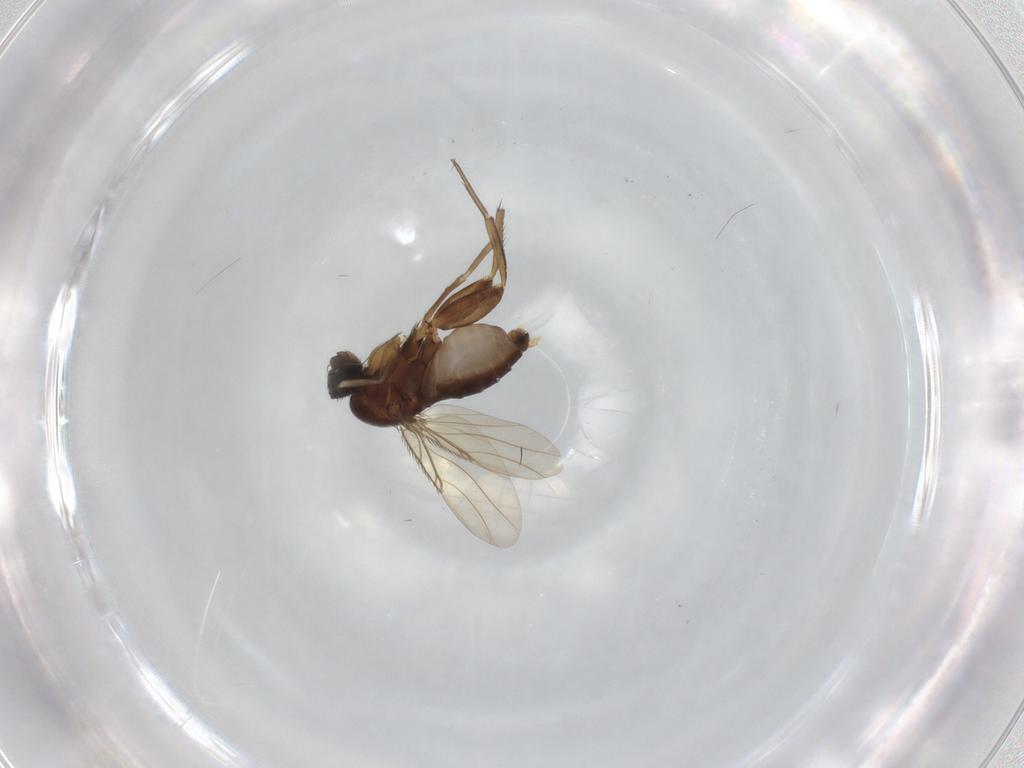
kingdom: Animalia
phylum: Arthropoda
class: Insecta
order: Diptera
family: Phoridae
